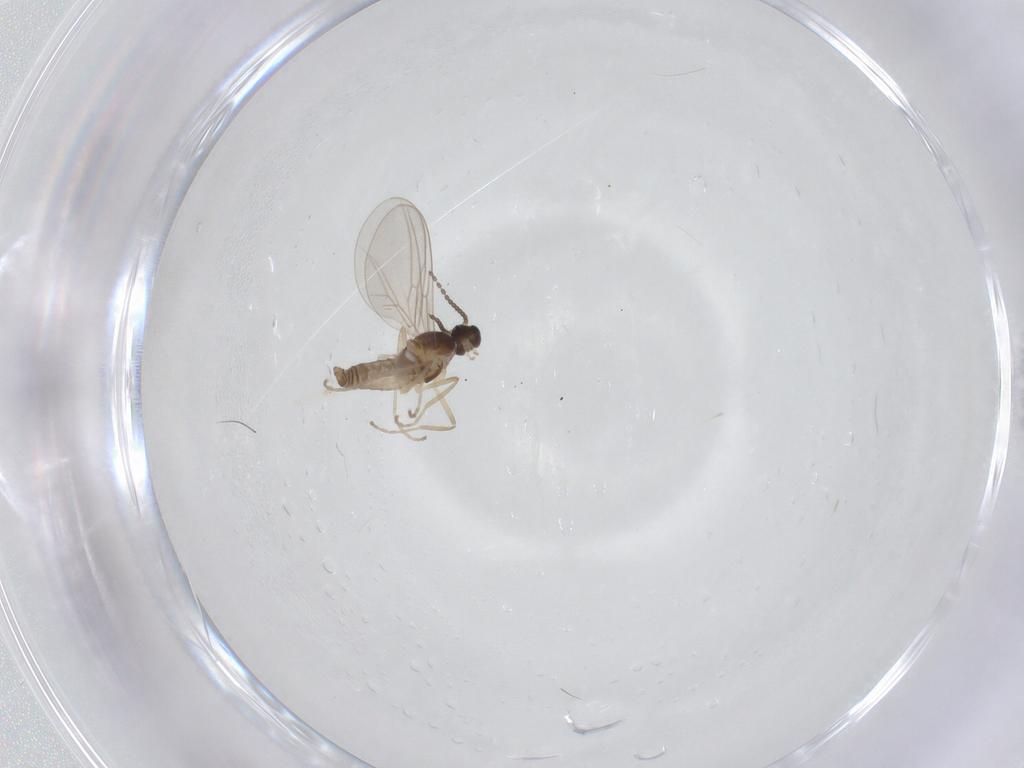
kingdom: Animalia
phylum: Arthropoda
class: Insecta
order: Diptera
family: Cecidomyiidae
